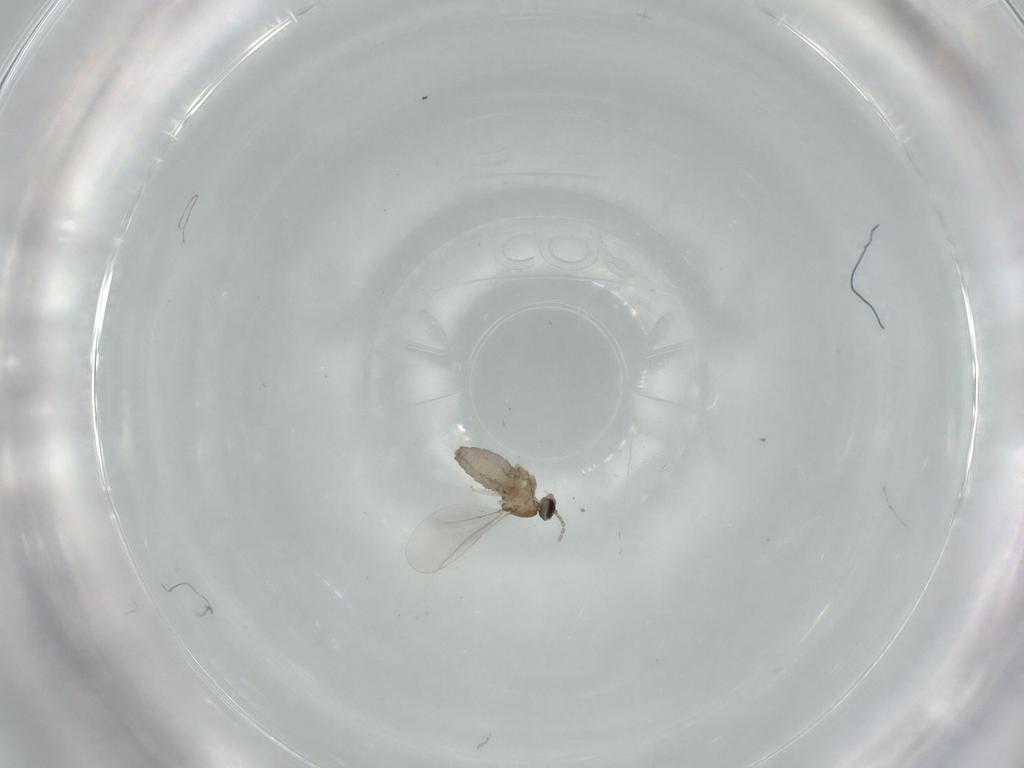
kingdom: Animalia
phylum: Arthropoda
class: Insecta
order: Diptera
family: Cecidomyiidae
